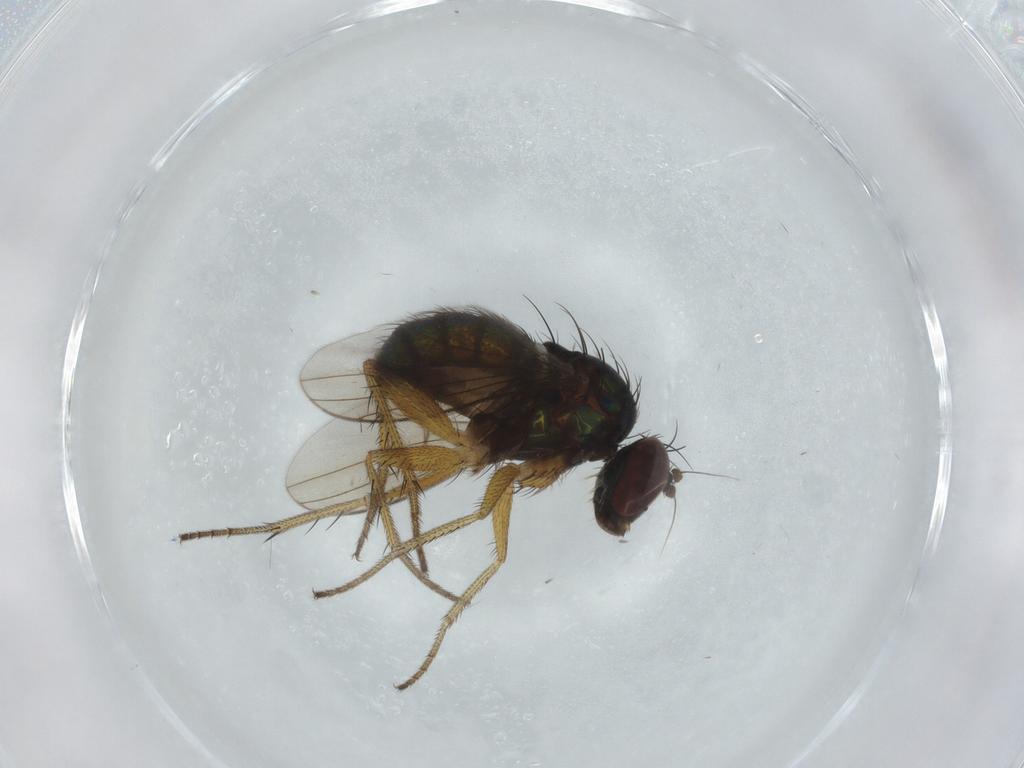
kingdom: Animalia
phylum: Arthropoda
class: Insecta
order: Diptera
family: Dolichopodidae
